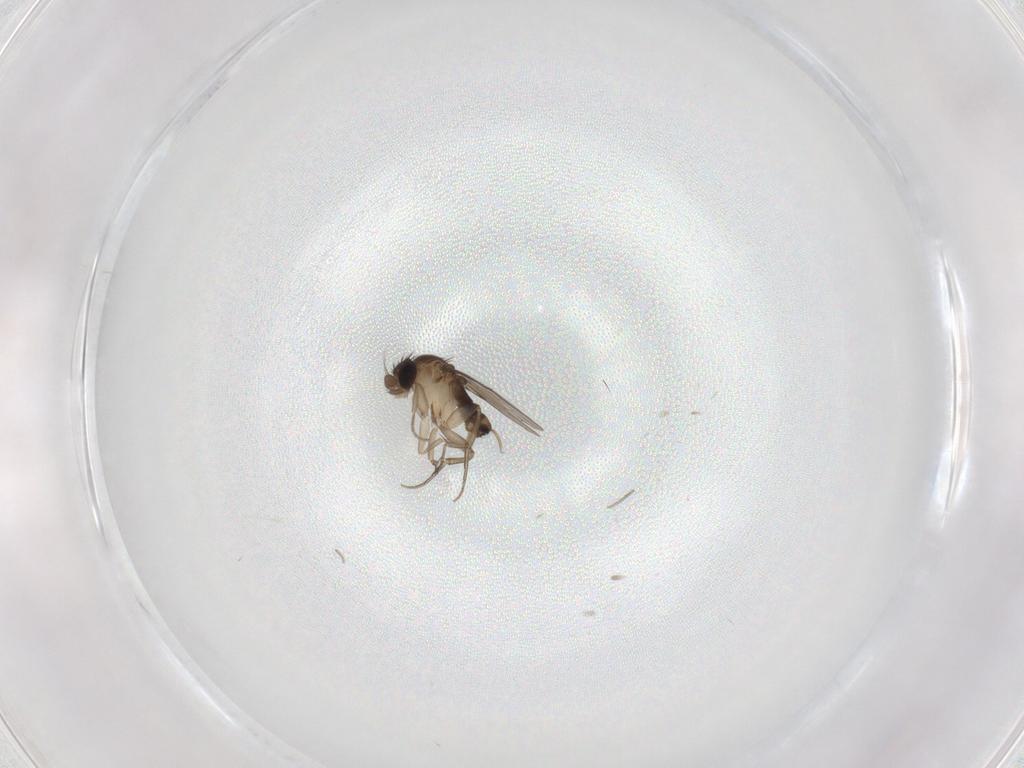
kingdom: Animalia
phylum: Arthropoda
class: Insecta
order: Diptera
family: Phoridae
